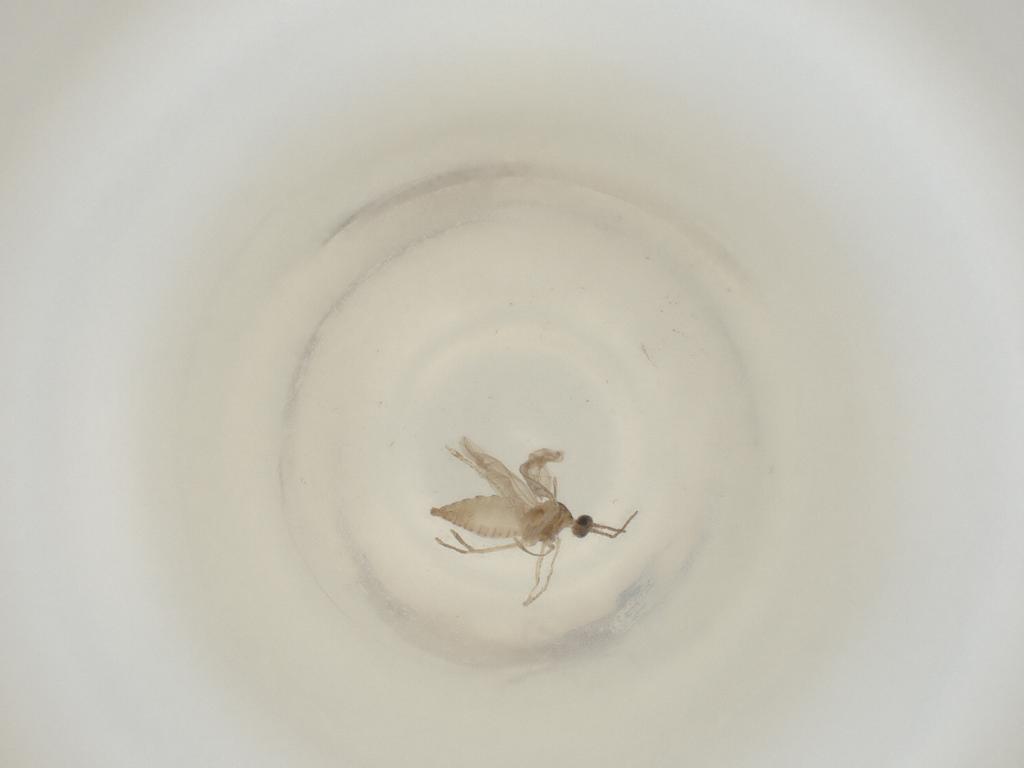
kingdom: Animalia
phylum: Arthropoda
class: Insecta
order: Diptera
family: Cecidomyiidae
